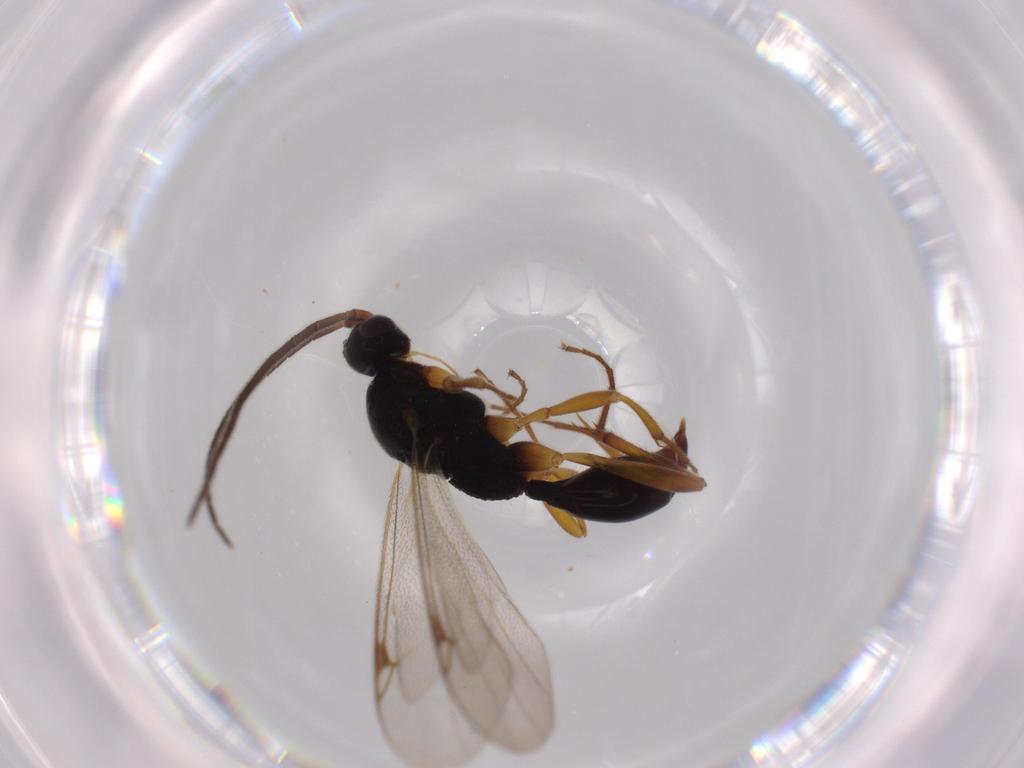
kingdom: Animalia
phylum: Arthropoda
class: Insecta
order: Hymenoptera
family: Proctotrupidae
